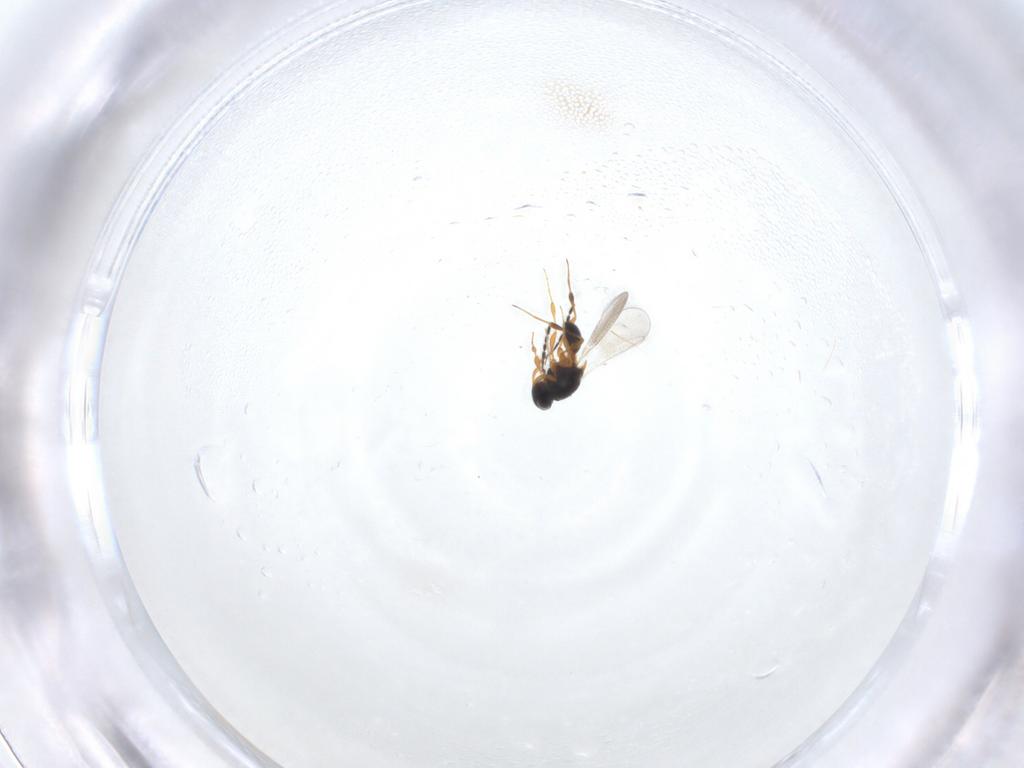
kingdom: Animalia
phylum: Arthropoda
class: Insecta
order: Hymenoptera
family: Platygastridae
